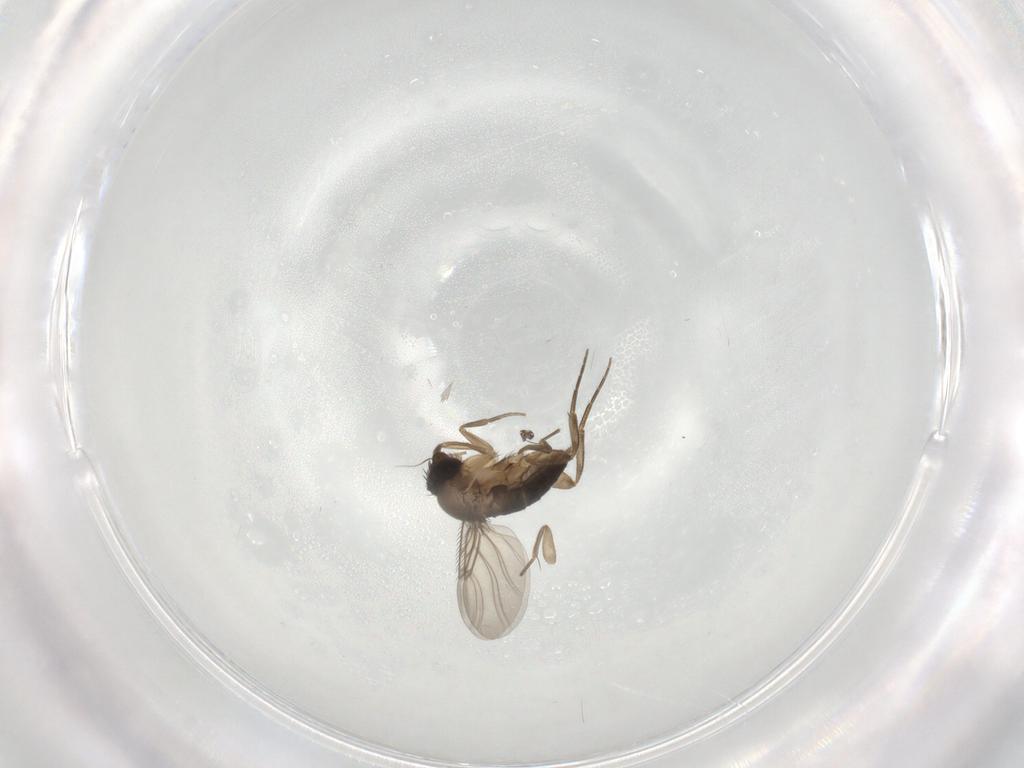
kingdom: Animalia
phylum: Arthropoda
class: Insecta
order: Diptera
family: Phoridae
